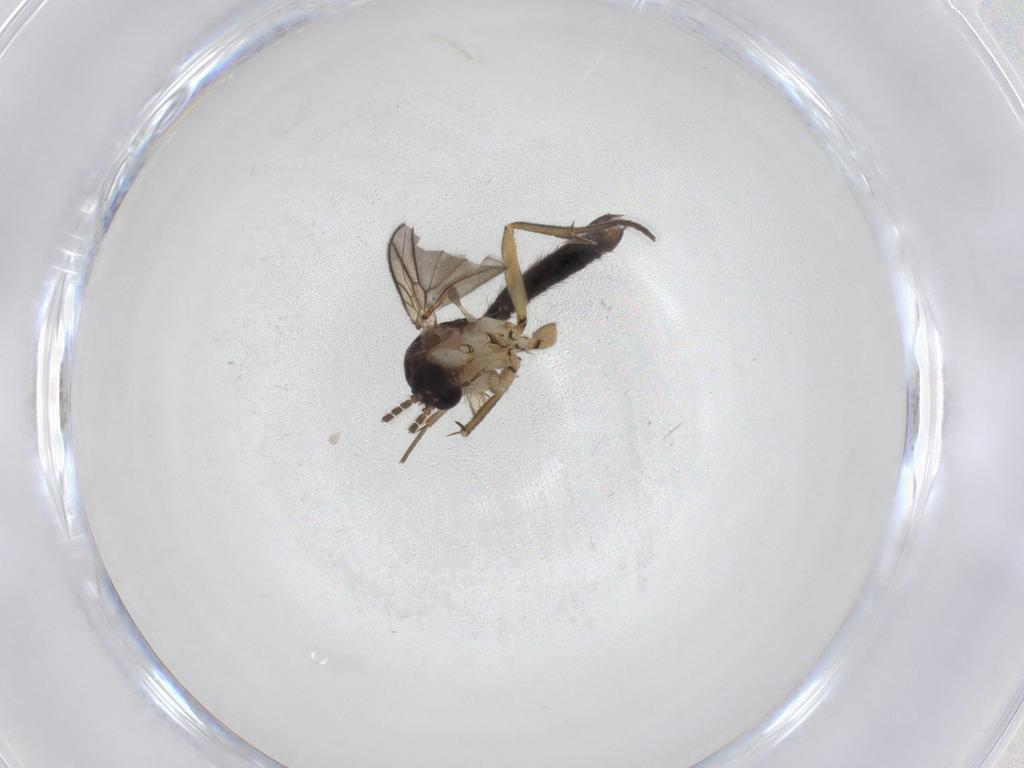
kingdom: Animalia
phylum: Arthropoda
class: Insecta
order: Diptera
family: Mycetophilidae
